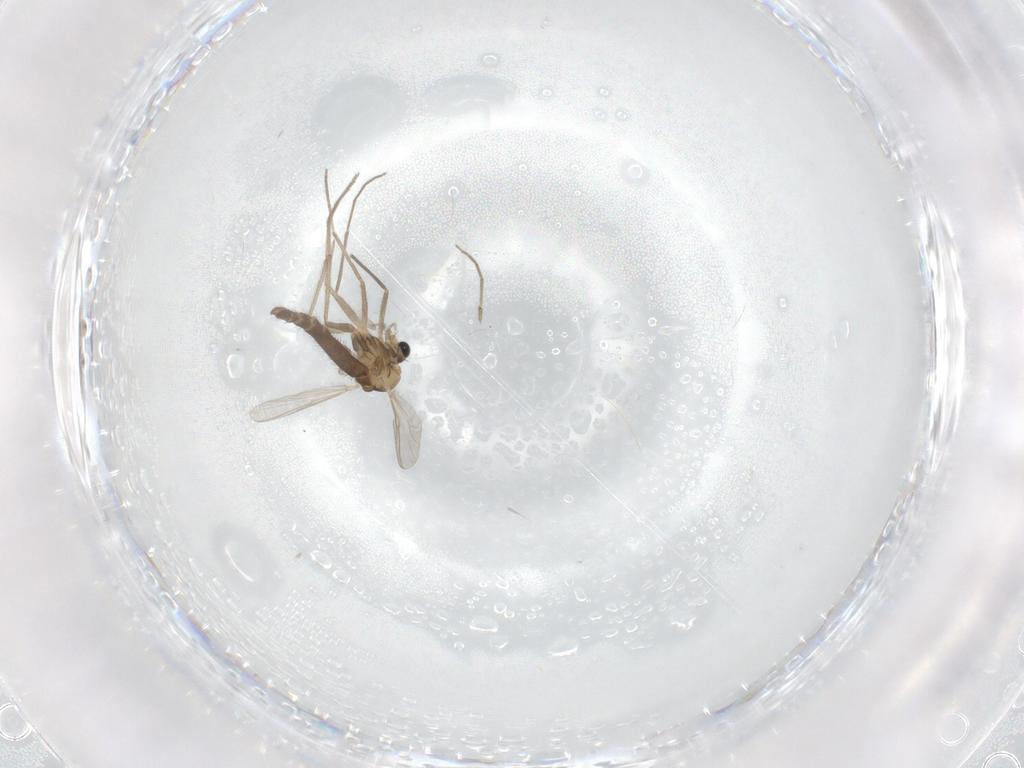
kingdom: Animalia
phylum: Arthropoda
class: Insecta
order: Diptera
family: Chironomidae
